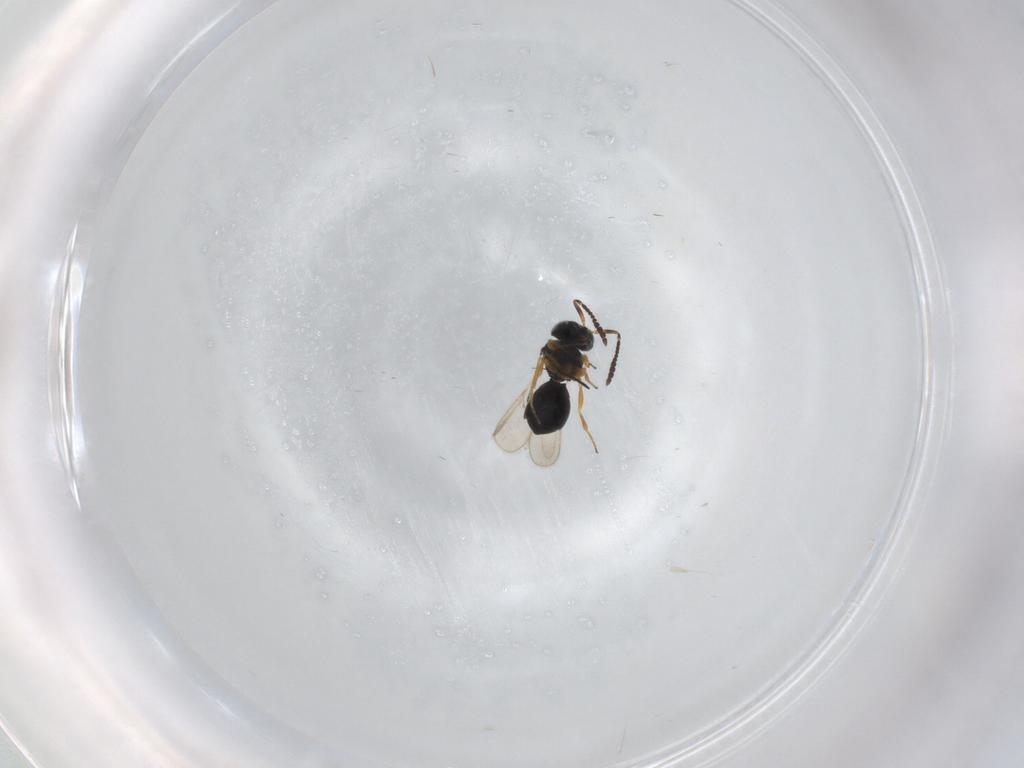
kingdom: Animalia
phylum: Arthropoda
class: Insecta
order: Hymenoptera
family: Scelionidae
